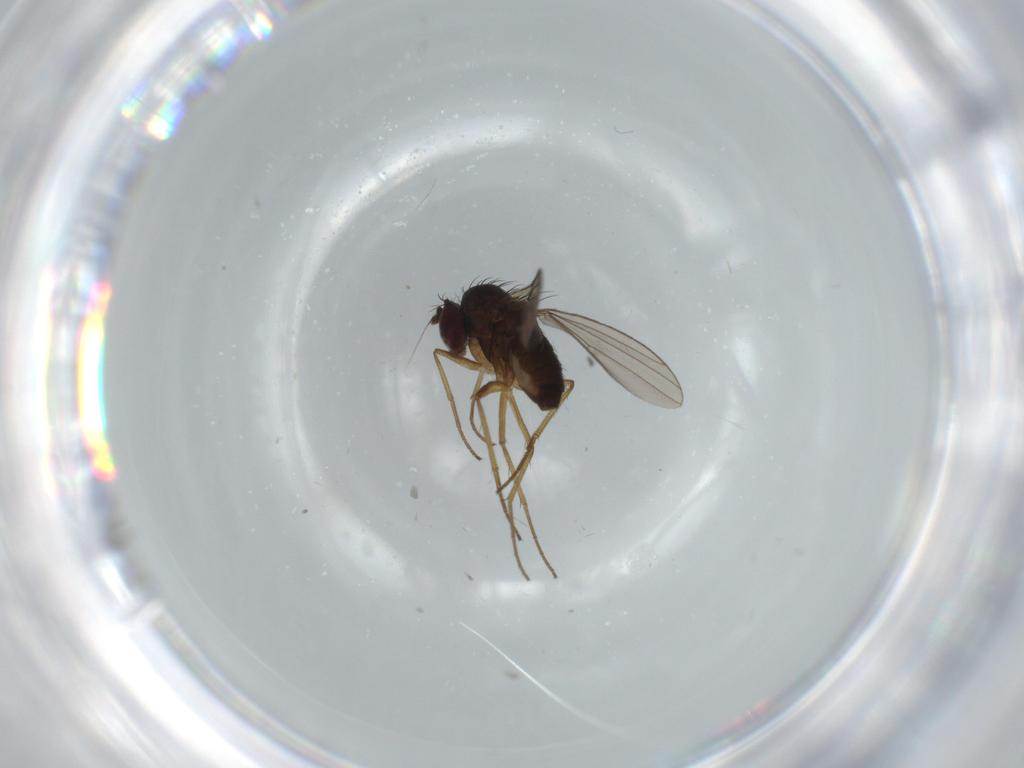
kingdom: Animalia
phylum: Arthropoda
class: Insecta
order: Diptera
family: Dolichopodidae
